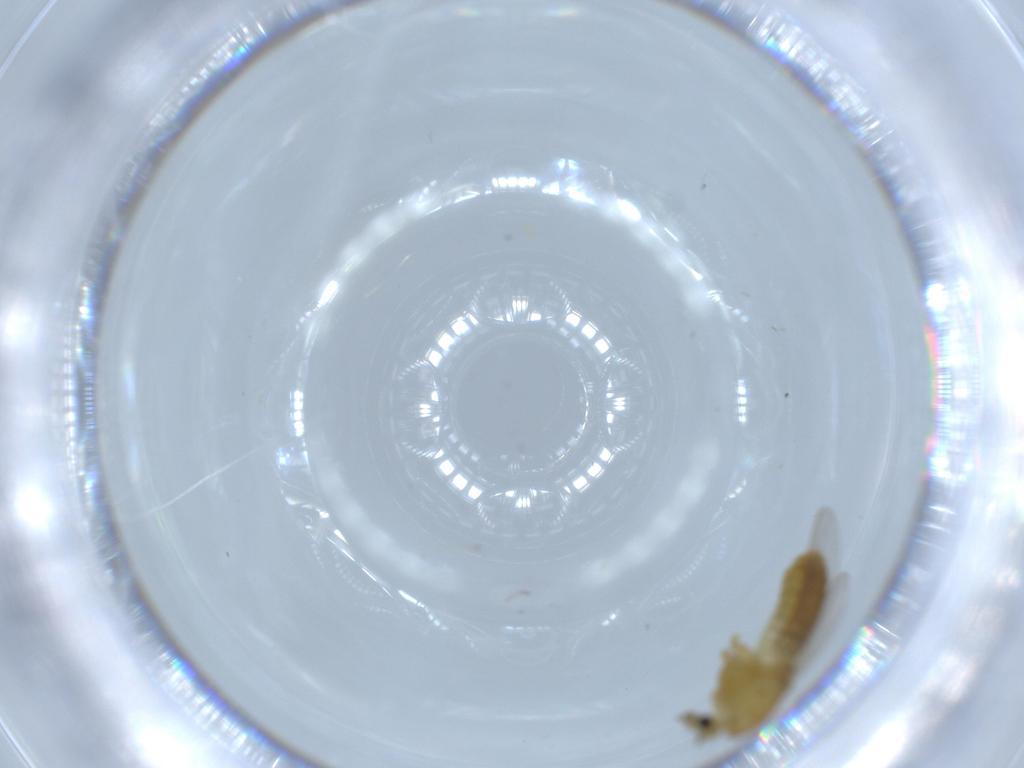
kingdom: Animalia
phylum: Arthropoda
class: Insecta
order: Diptera
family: Chironomidae
